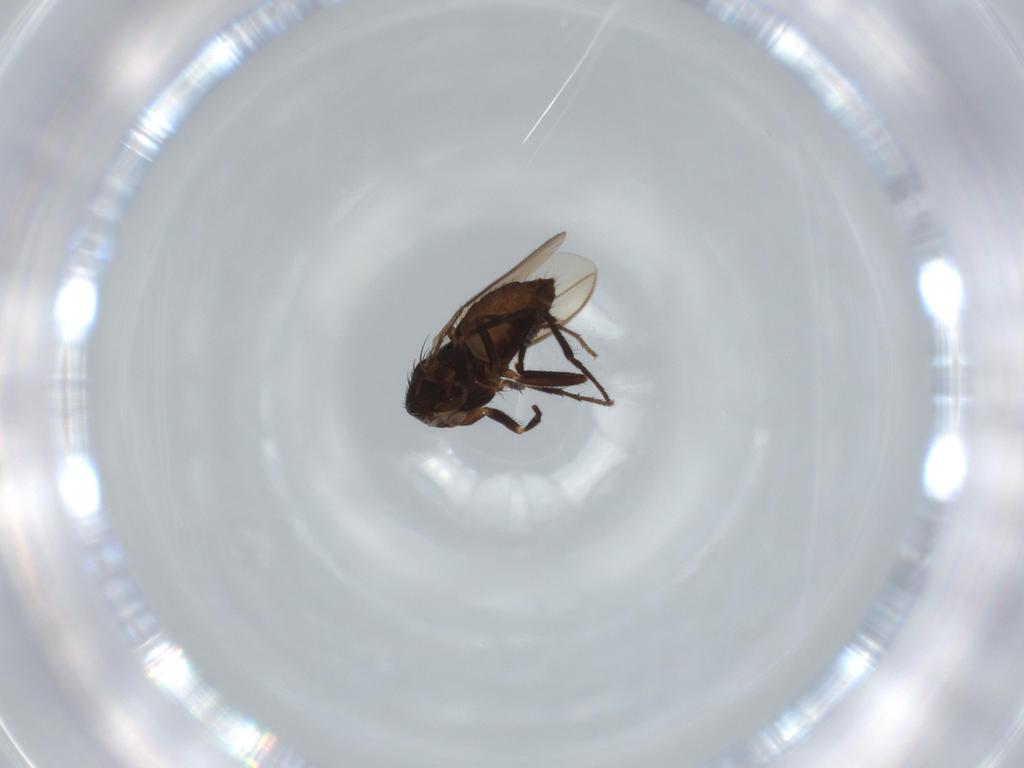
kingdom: Animalia
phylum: Arthropoda
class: Insecta
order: Diptera
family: Sphaeroceridae
